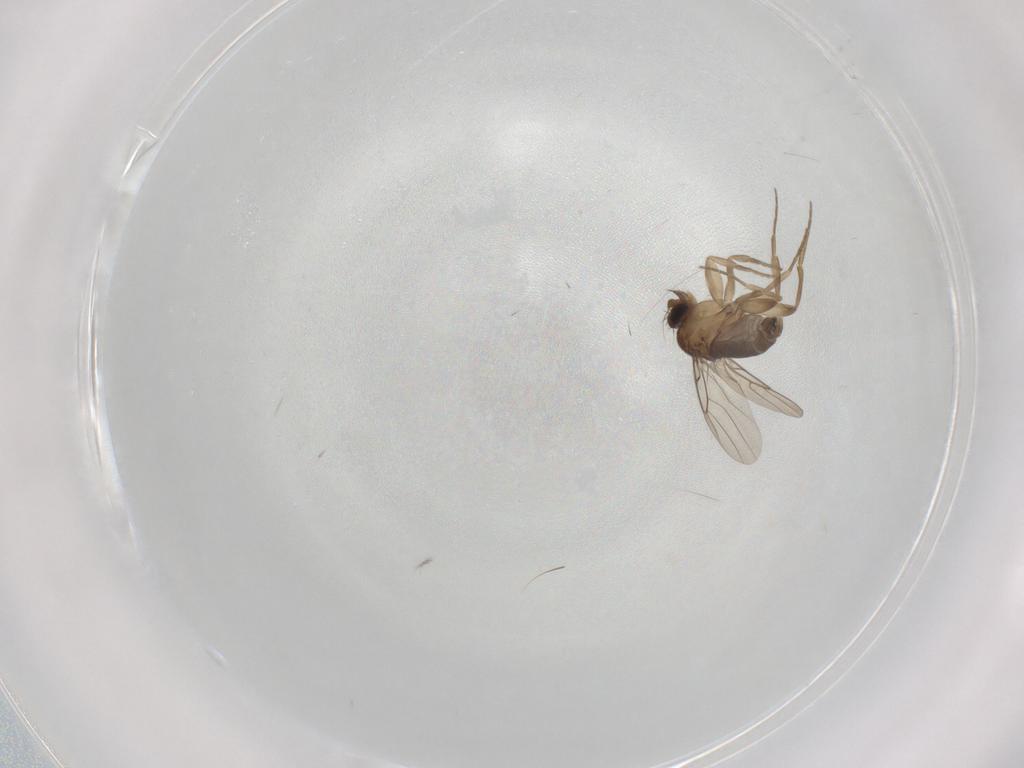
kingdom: Animalia
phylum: Arthropoda
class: Insecta
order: Diptera
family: Phoridae
